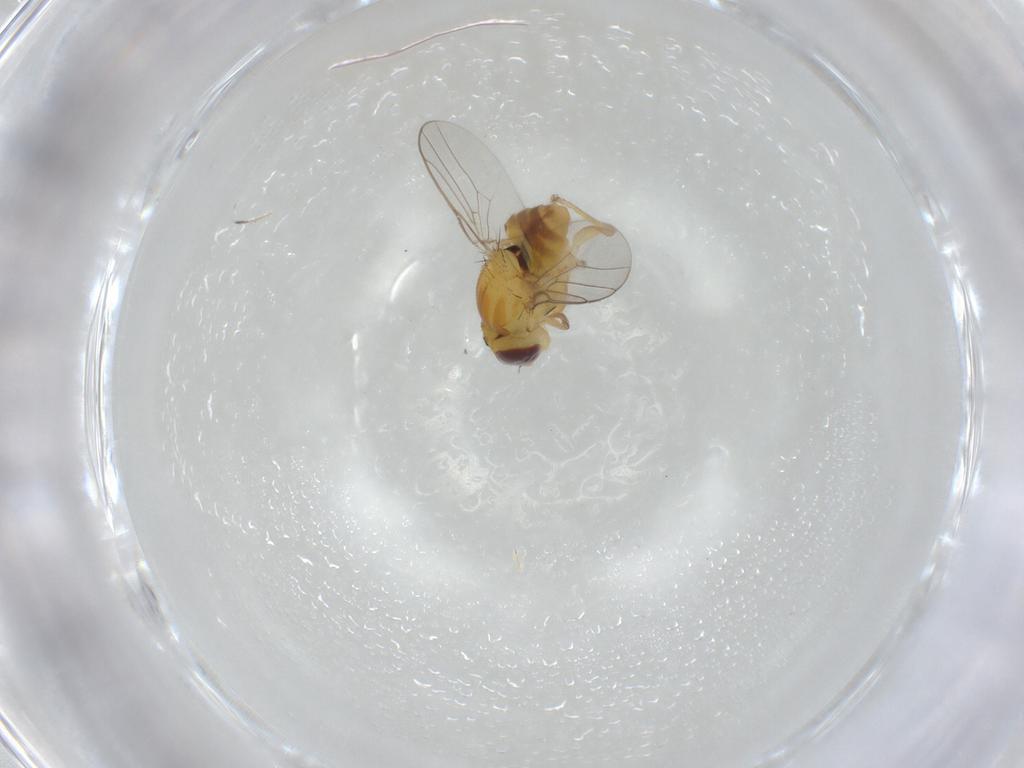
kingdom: Animalia
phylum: Arthropoda
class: Insecta
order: Diptera
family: Chloropidae
